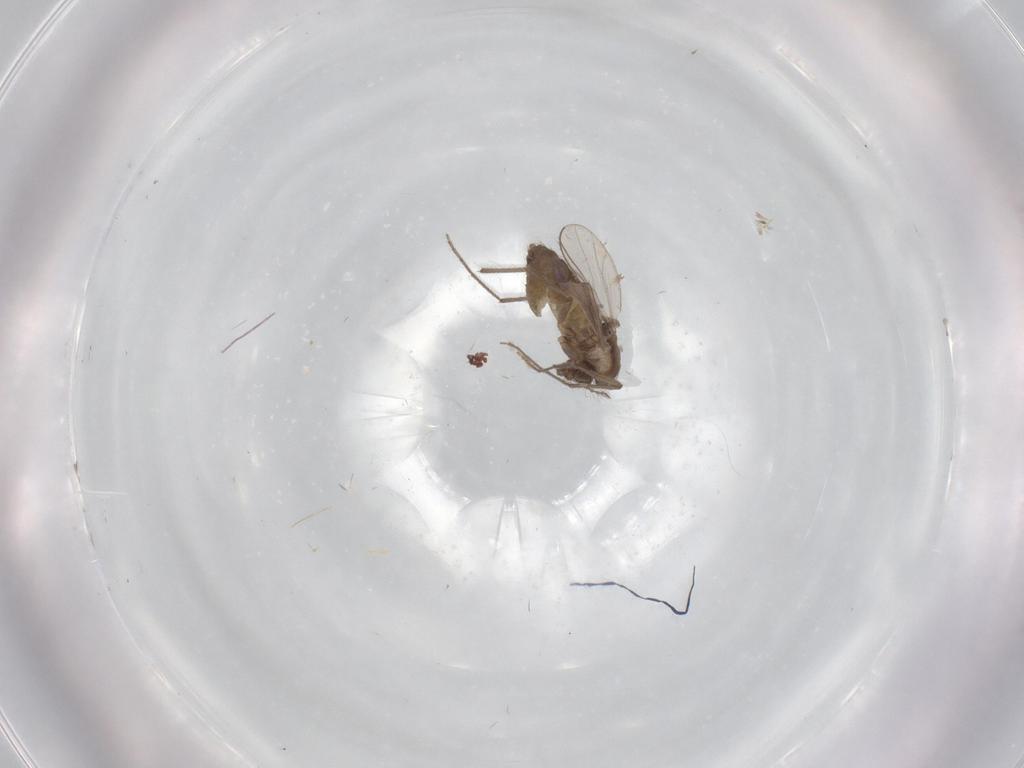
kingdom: Animalia
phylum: Arthropoda
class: Insecta
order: Diptera
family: Chironomidae
